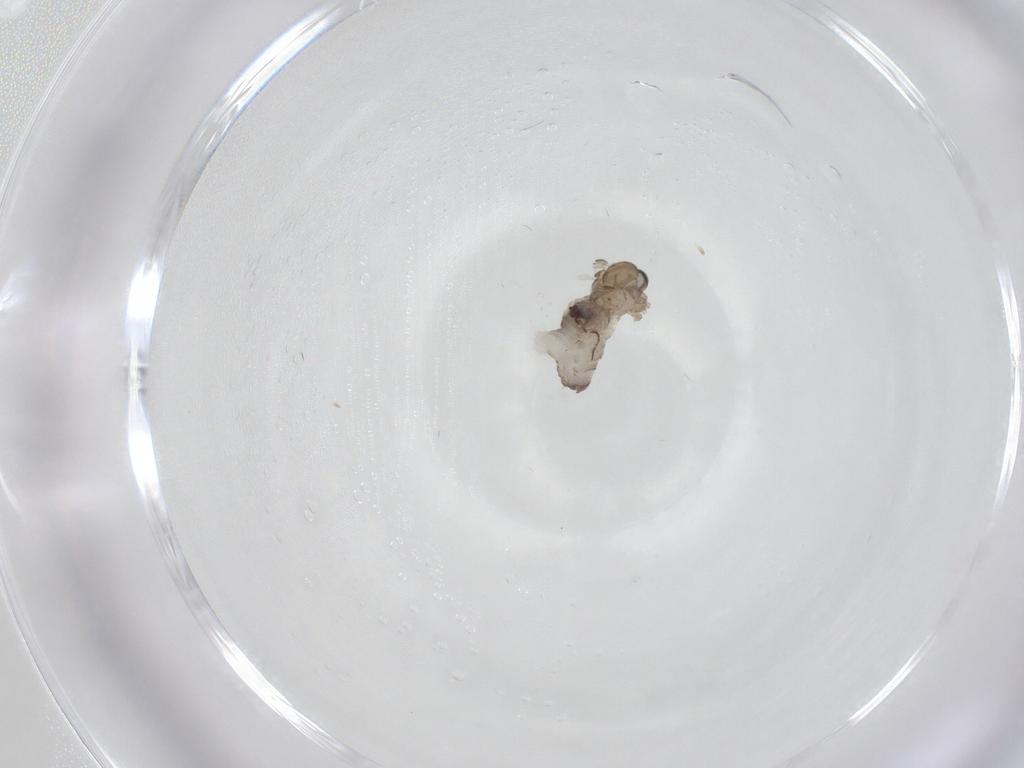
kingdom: Animalia
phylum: Arthropoda
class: Insecta
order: Diptera
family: Psychodidae
